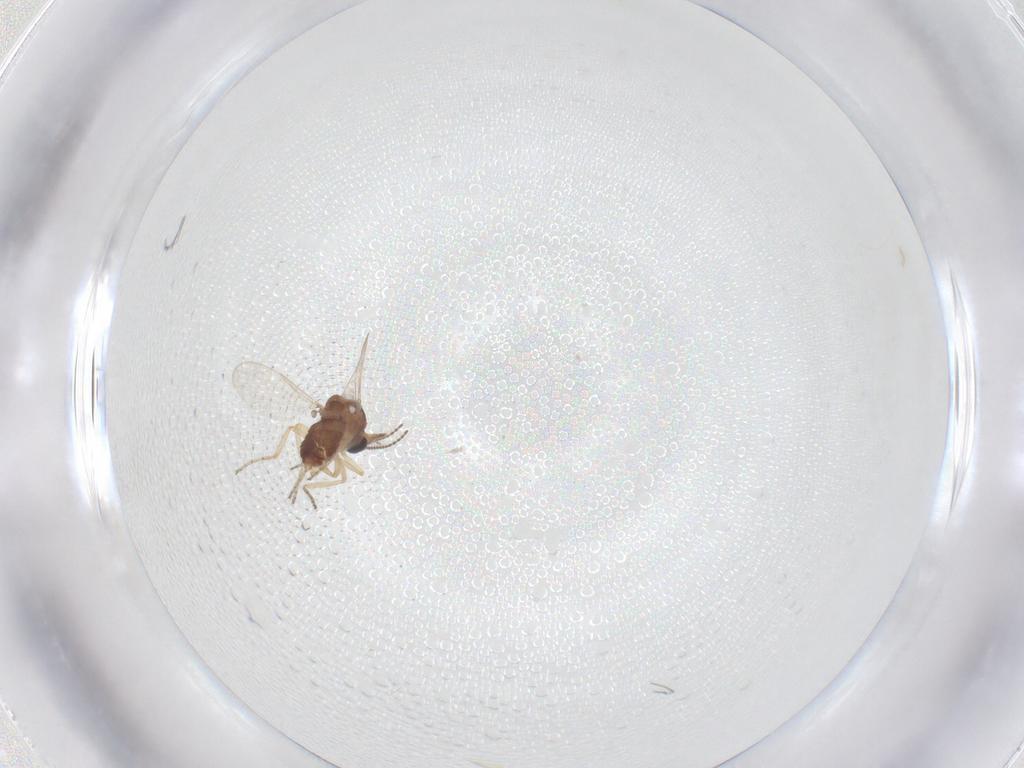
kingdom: Animalia
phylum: Arthropoda
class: Insecta
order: Diptera
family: Ceratopogonidae
